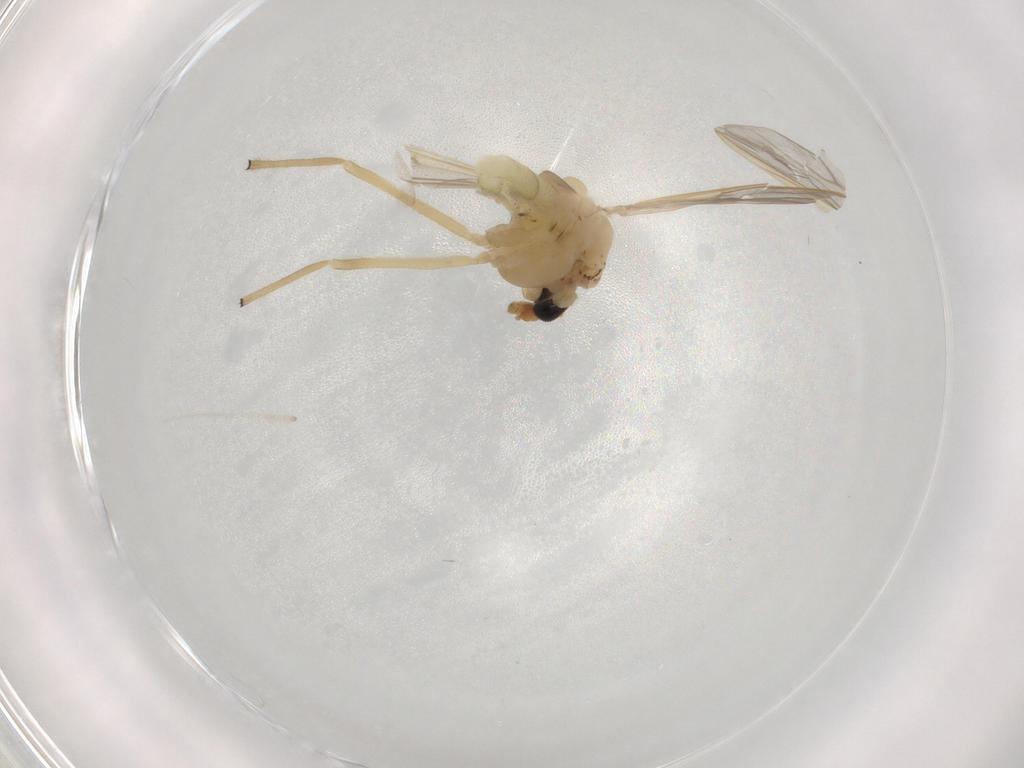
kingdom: Animalia
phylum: Arthropoda
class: Insecta
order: Diptera
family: Chironomidae
